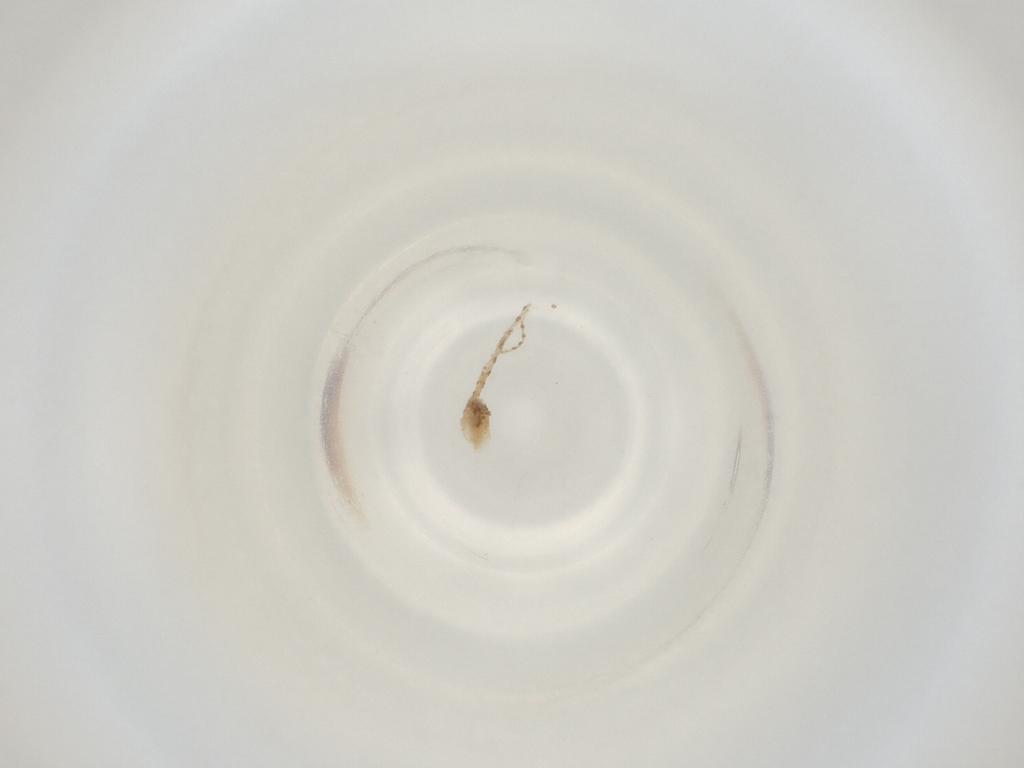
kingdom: Animalia
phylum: Arthropoda
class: Insecta
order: Diptera
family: Cecidomyiidae
